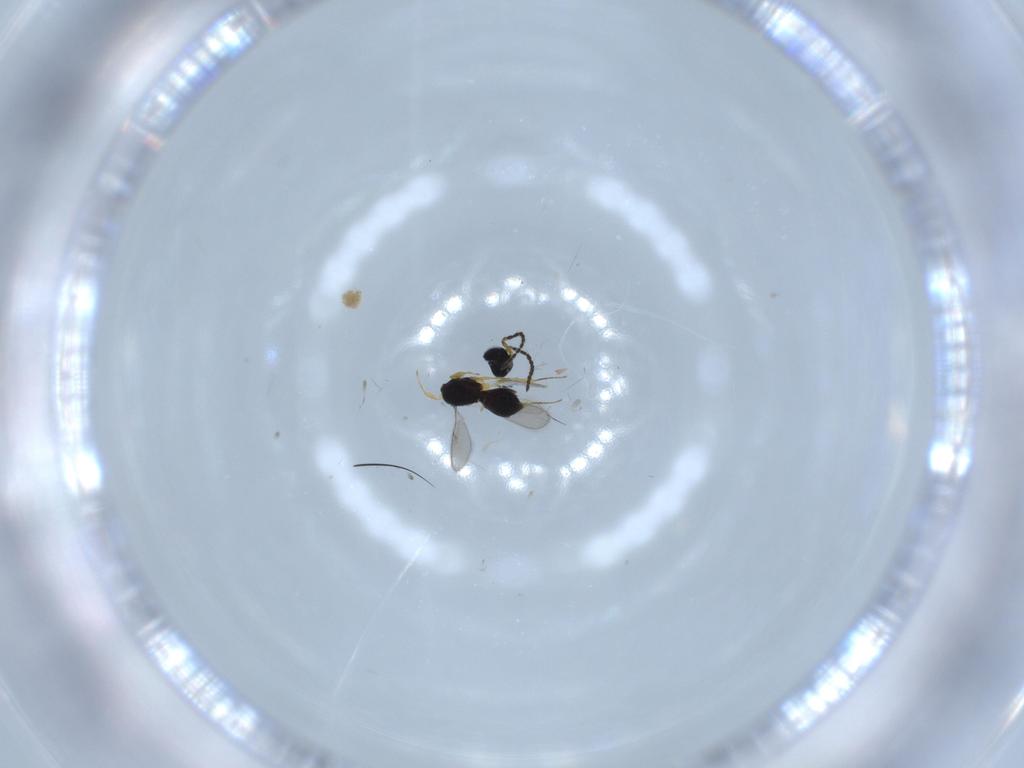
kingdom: Animalia
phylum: Arthropoda
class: Insecta
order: Hymenoptera
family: Scelionidae
